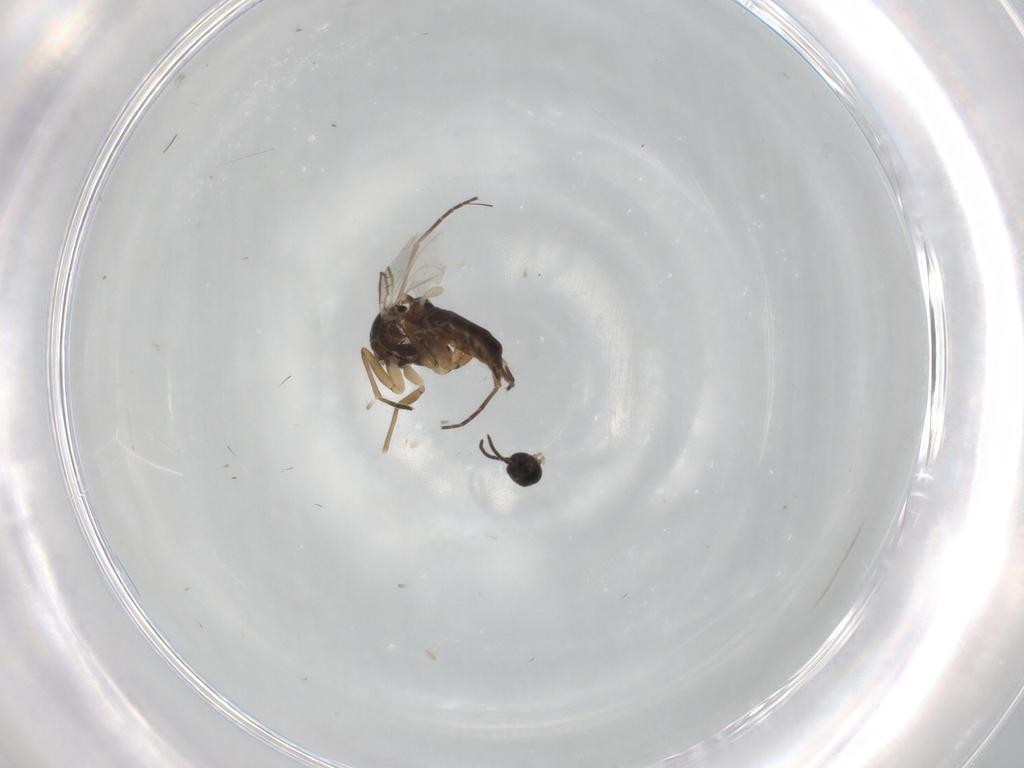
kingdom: Animalia
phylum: Arthropoda
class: Insecta
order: Diptera
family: Sciaridae
